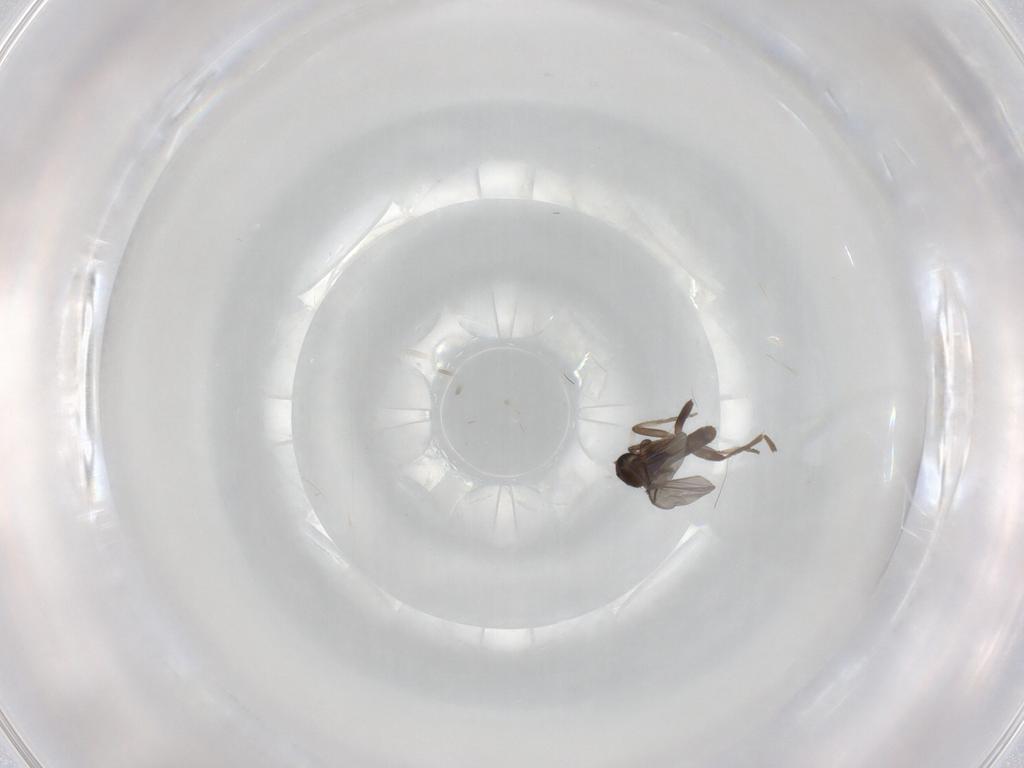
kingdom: Animalia
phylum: Arthropoda
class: Insecta
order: Diptera
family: Phoridae
